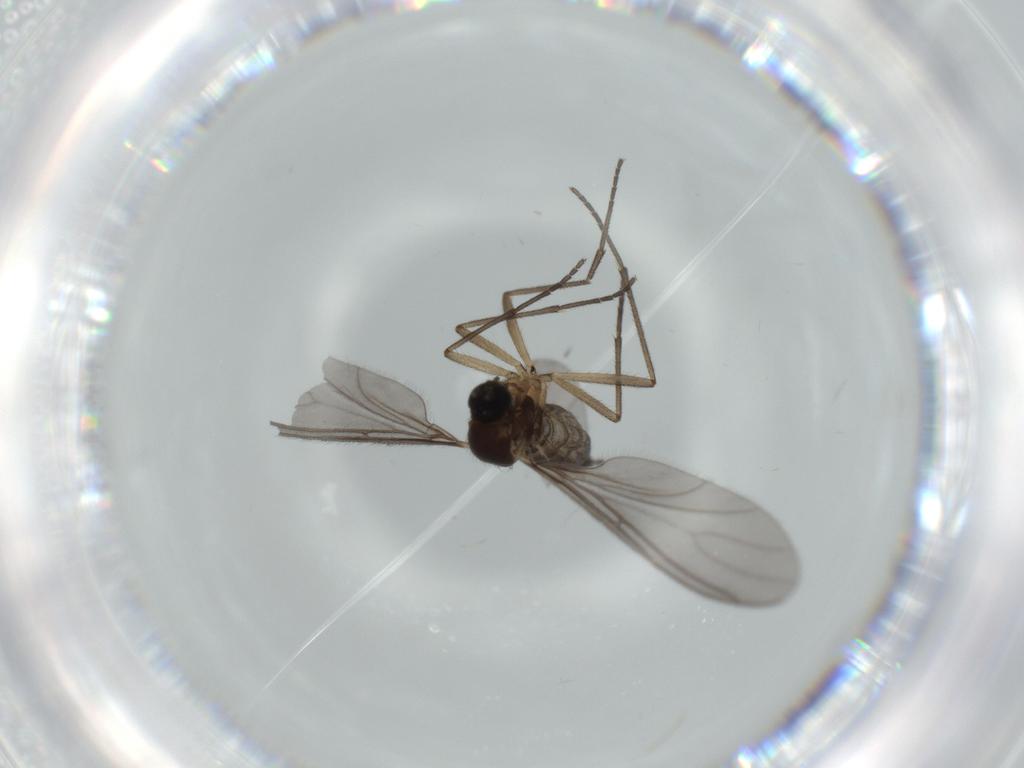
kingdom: Animalia
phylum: Arthropoda
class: Insecta
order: Diptera
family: Sciaridae
